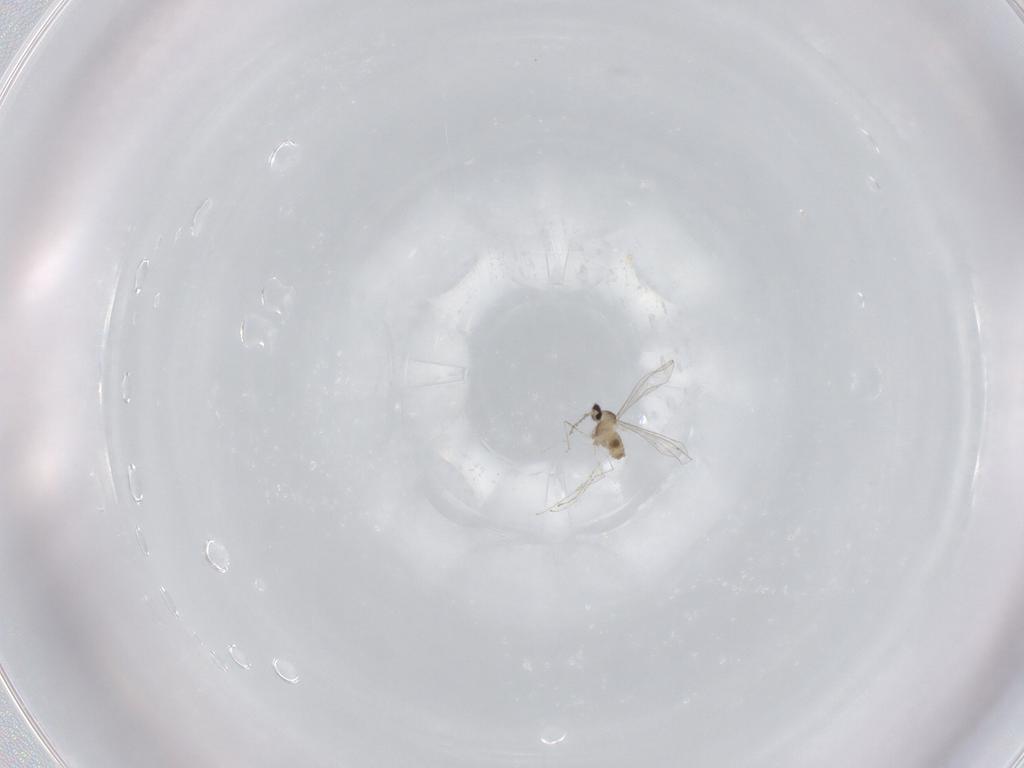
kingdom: Animalia
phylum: Arthropoda
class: Insecta
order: Diptera
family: Cecidomyiidae
